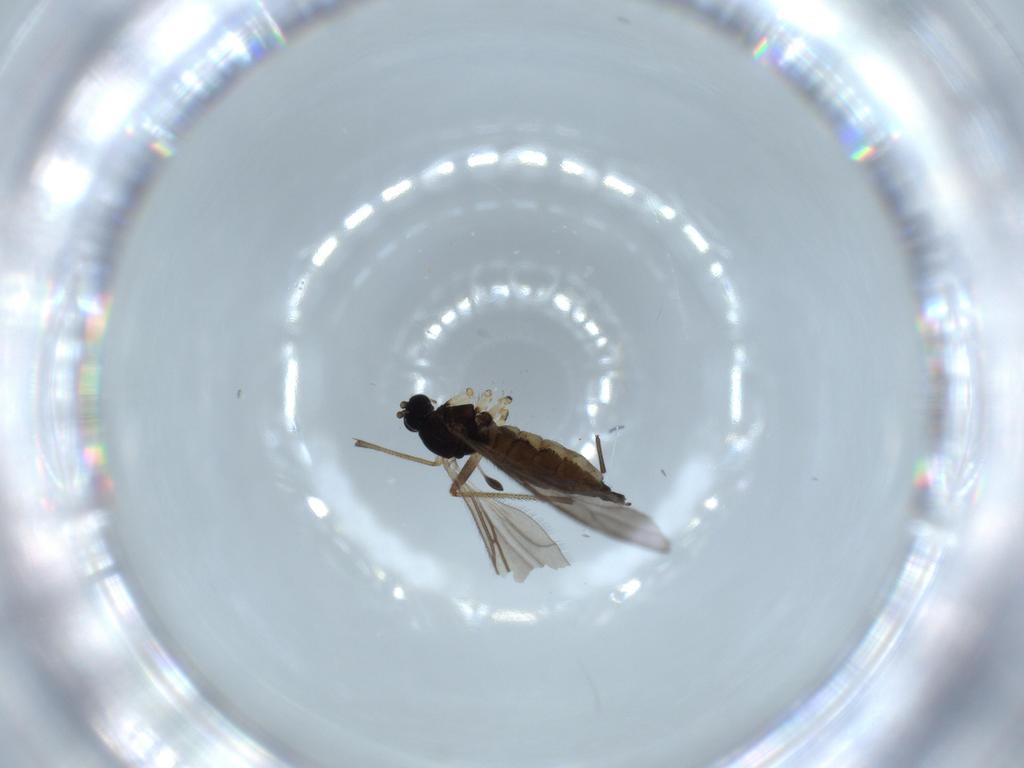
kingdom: Animalia
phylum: Arthropoda
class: Insecta
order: Diptera
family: Sciaridae
